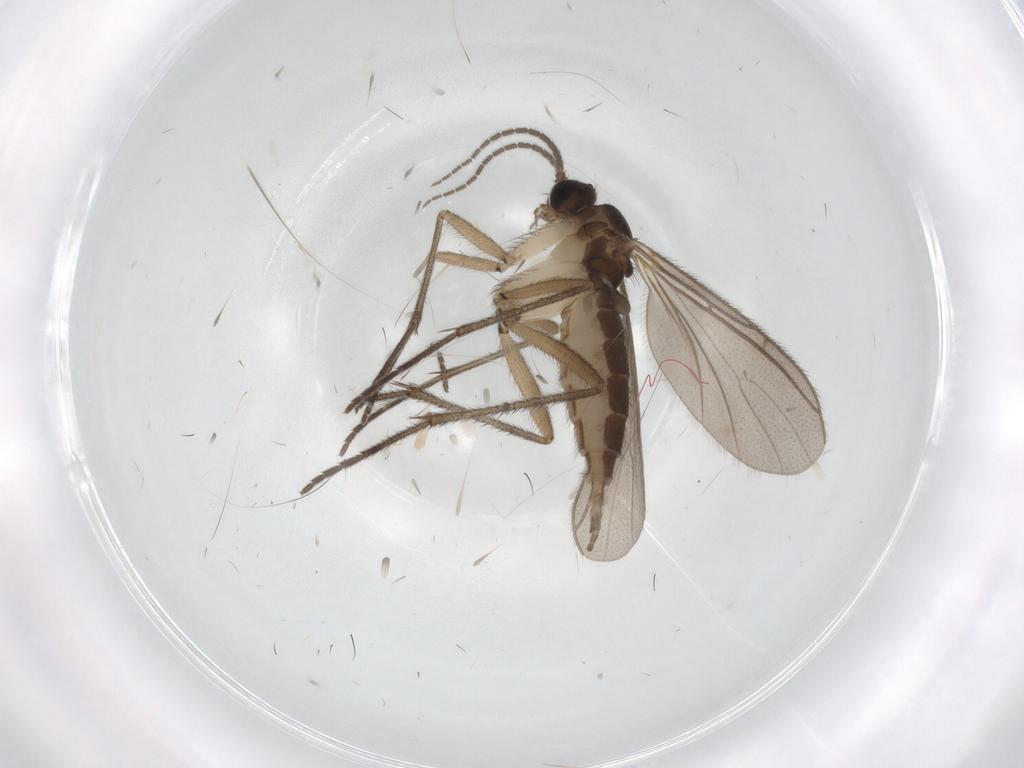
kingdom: Animalia
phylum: Arthropoda
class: Insecta
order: Diptera
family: Sciaridae
